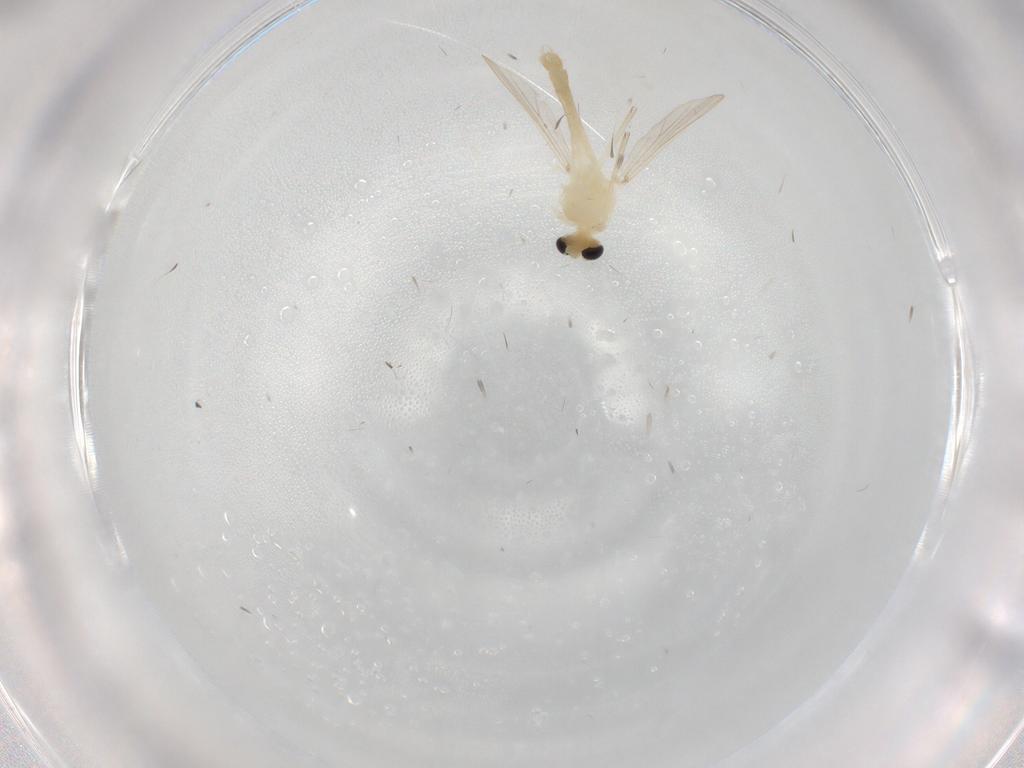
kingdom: Animalia
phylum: Arthropoda
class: Insecta
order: Diptera
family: Chironomidae
